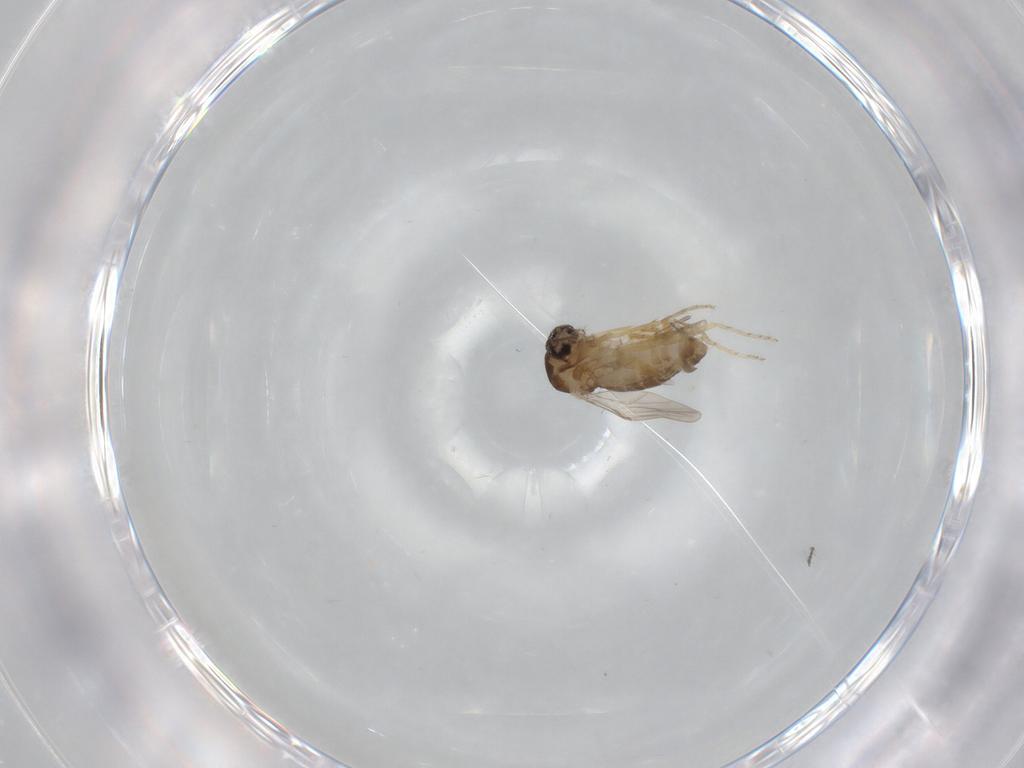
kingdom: Animalia
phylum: Arthropoda
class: Insecta
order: Diptera
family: Ceratopogonidae
